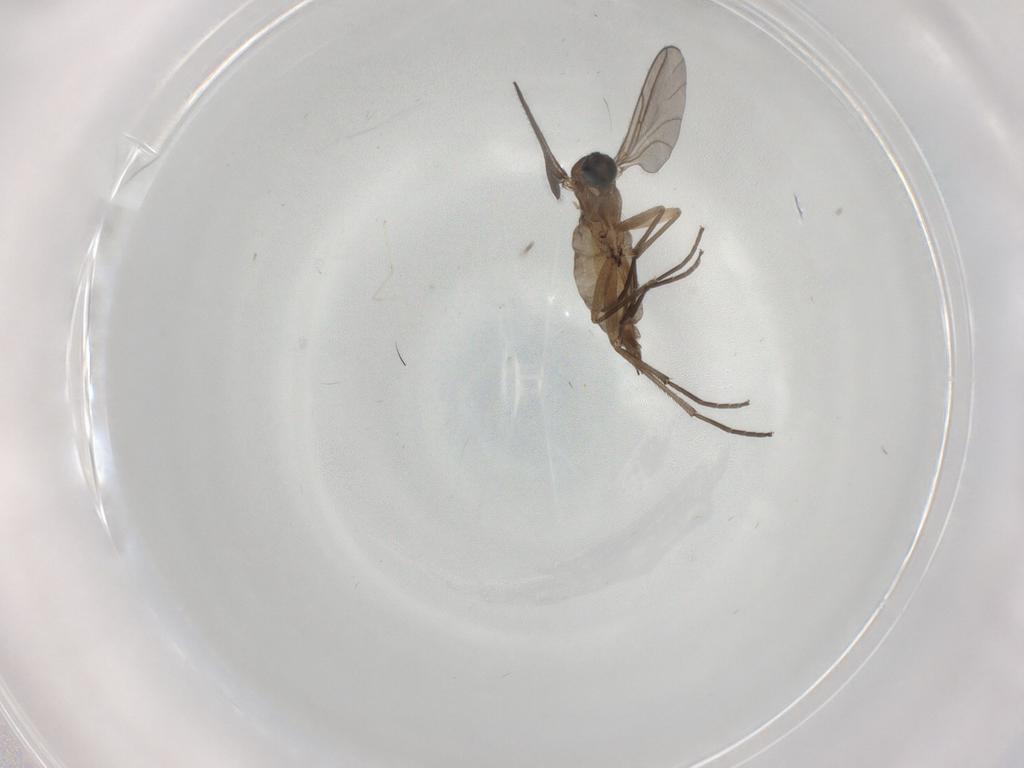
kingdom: Animalia
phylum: Arthropoda
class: Insecta
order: Diptera
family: Sciaridae
